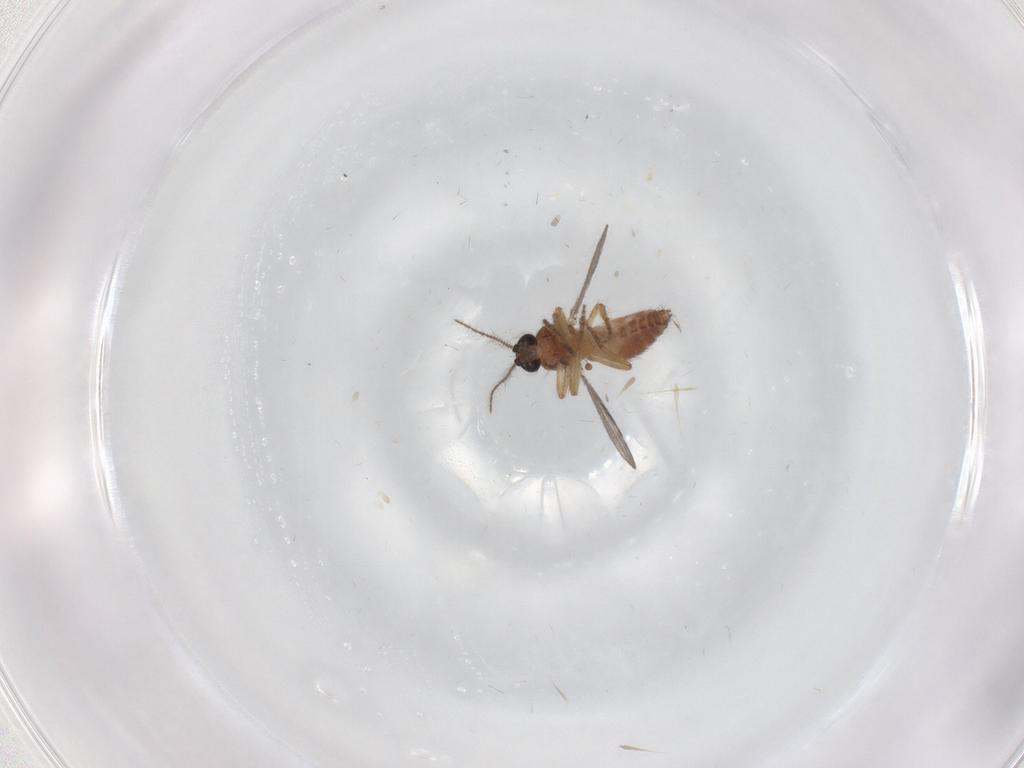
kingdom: Animalia
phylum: Arthropoda
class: Insecta
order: Diptera
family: Ceratopogonidae
